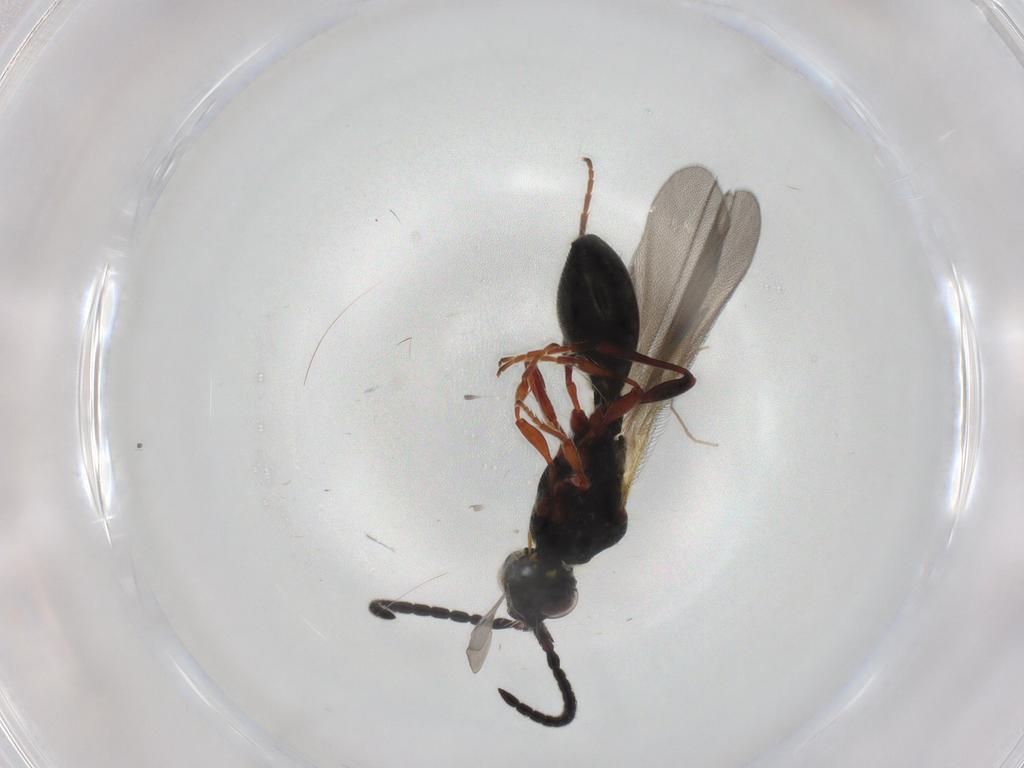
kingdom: Animalia
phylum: Arthropoda
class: Insecta
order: Hymenoptera
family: Diapriidae
